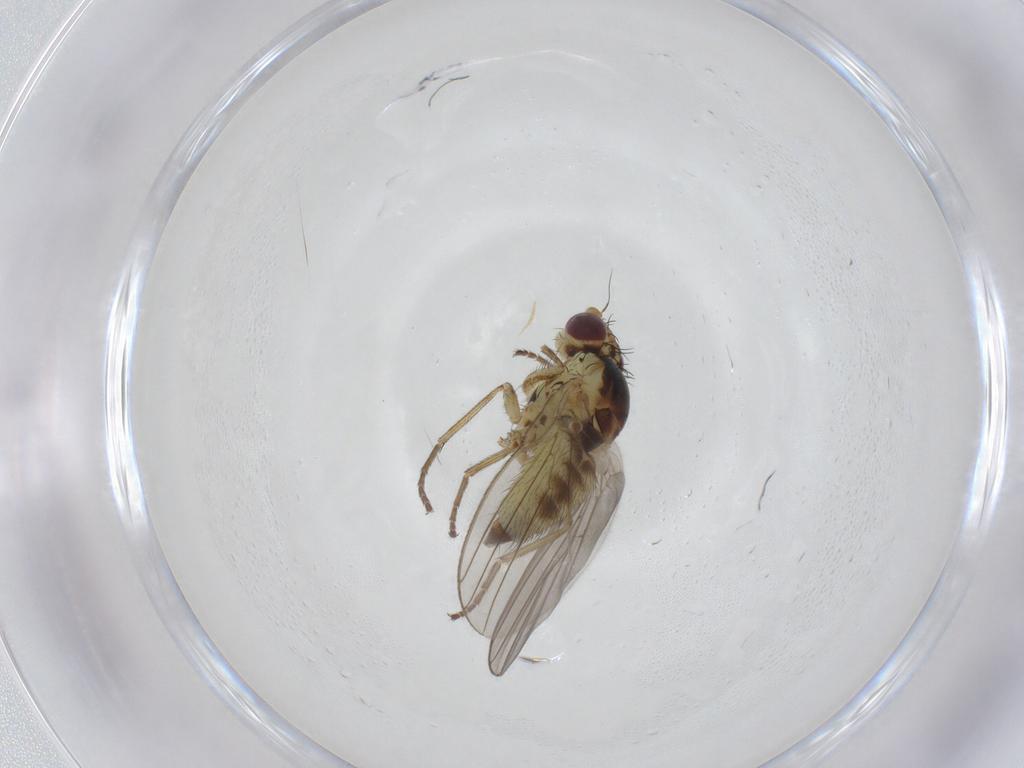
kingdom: Animalia
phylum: Arthropoda
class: Insecta
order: Diptera
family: Agromyzidae
